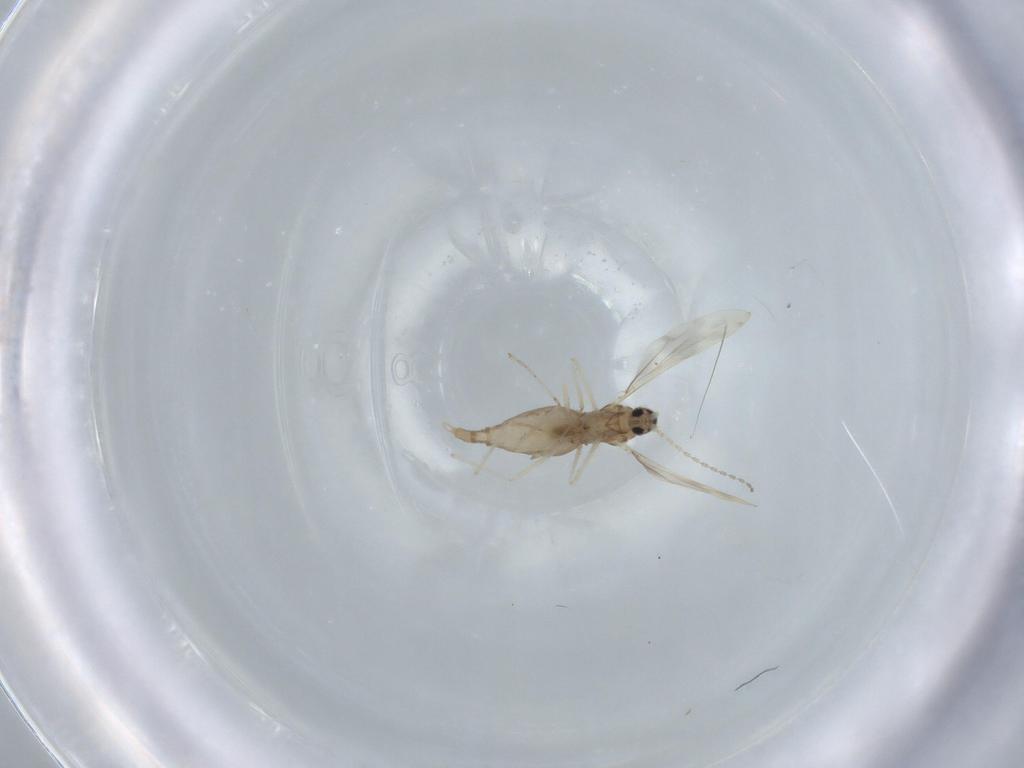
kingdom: Animalia
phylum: Arthropoda
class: Insecta
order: Diptera
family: Cecidomyiidae
